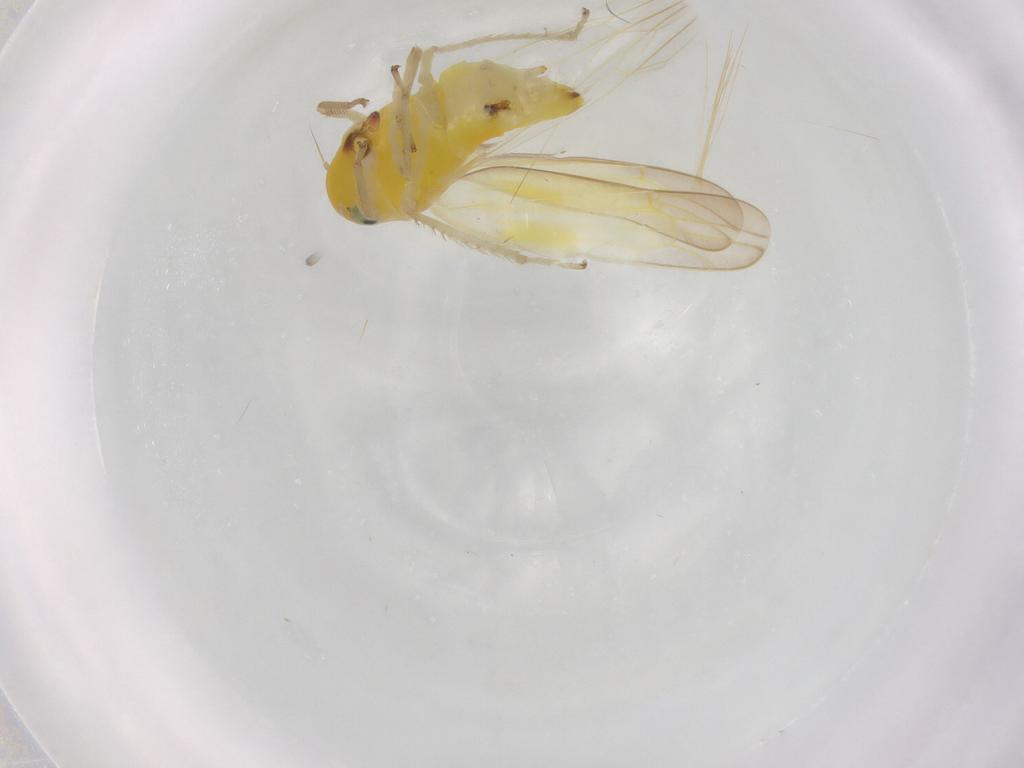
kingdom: Animalia
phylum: Arthropoda
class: Insecta
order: Hemiptera
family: Cicadellidae
